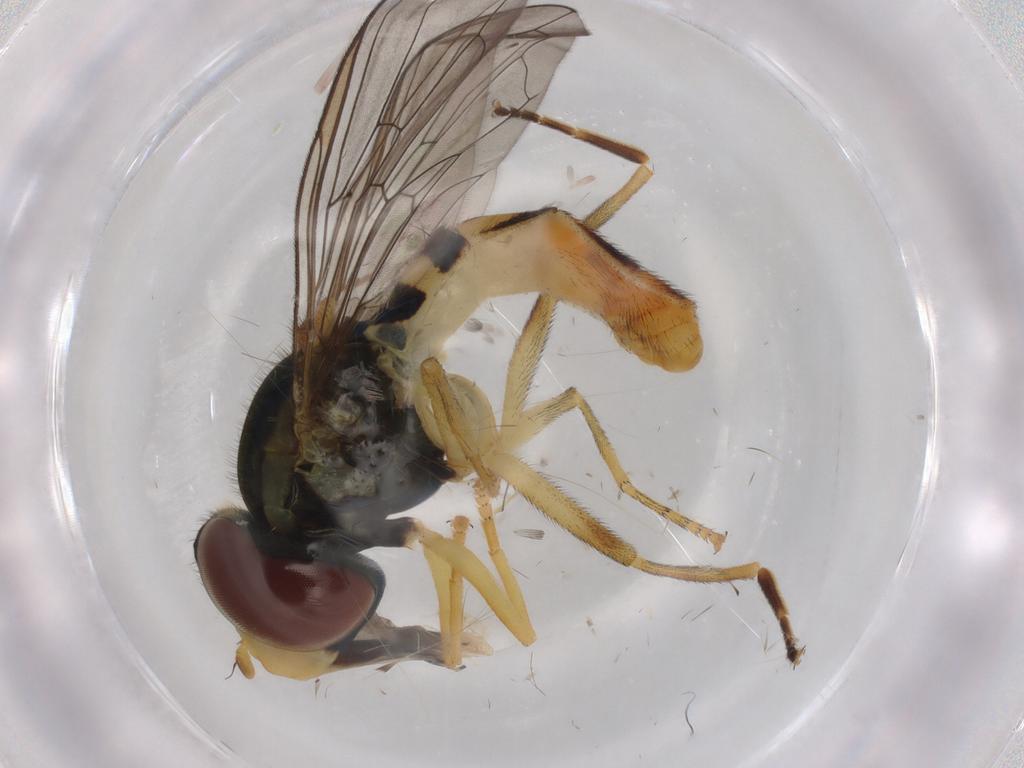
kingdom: Animalia
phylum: Arthropoda
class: Insecta
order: Diptera
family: Syrphidae
